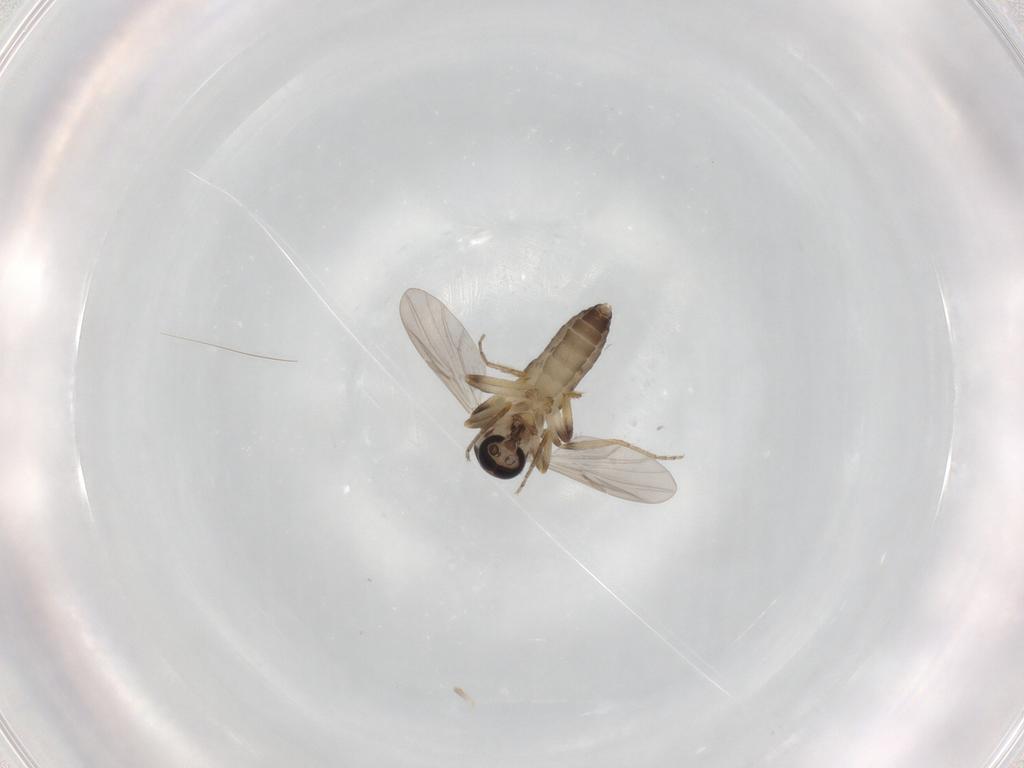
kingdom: Animalia
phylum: Arthropoda
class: Insecta
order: Diptera
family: Ceratopogonidae
